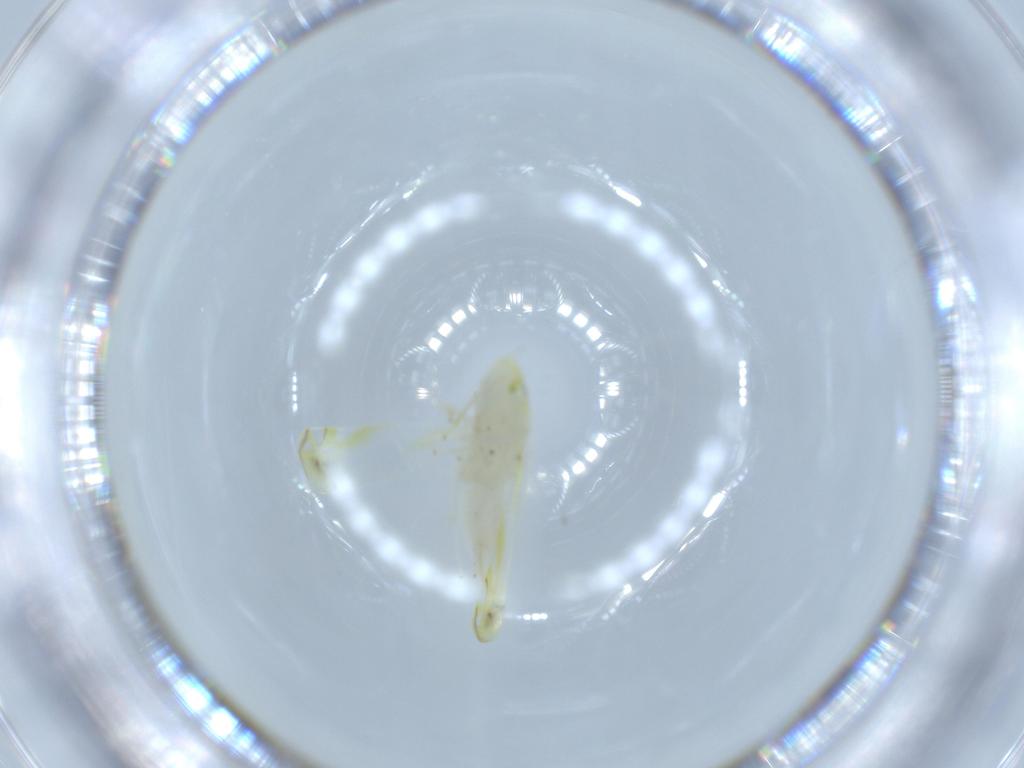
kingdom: Animalia
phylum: Arthropoda
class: Insecta
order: Hemiptera
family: Cicadellidae
